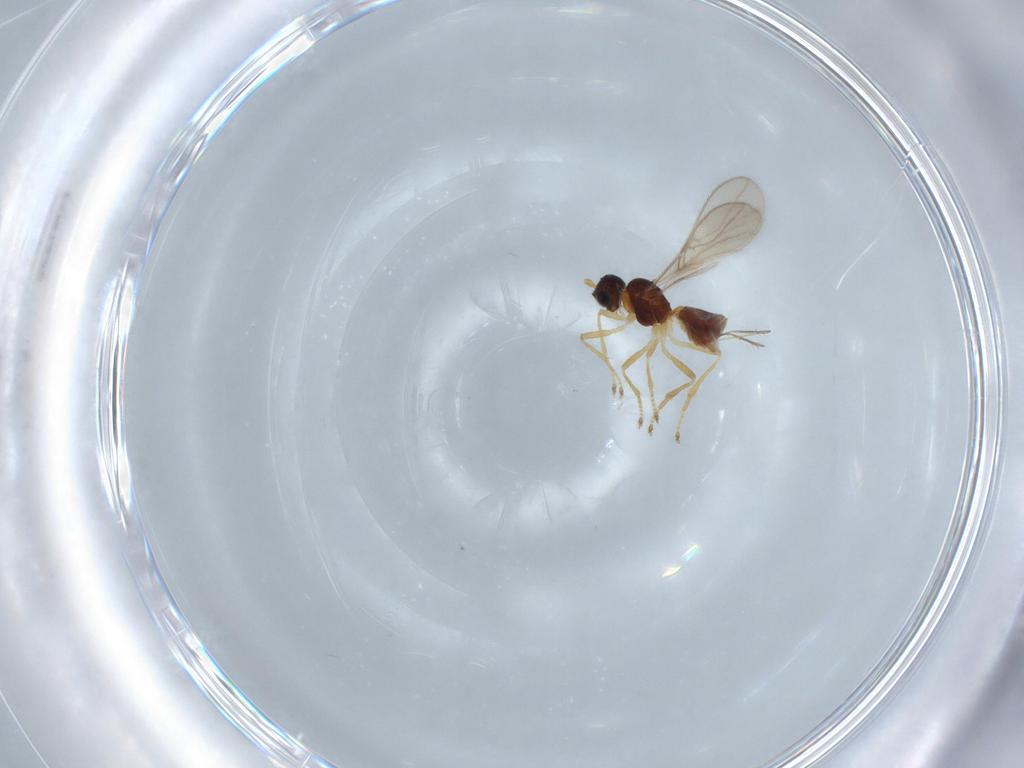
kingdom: Animalia
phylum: Arthropoda
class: Insecta
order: Hymenoptera
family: Braconidae
